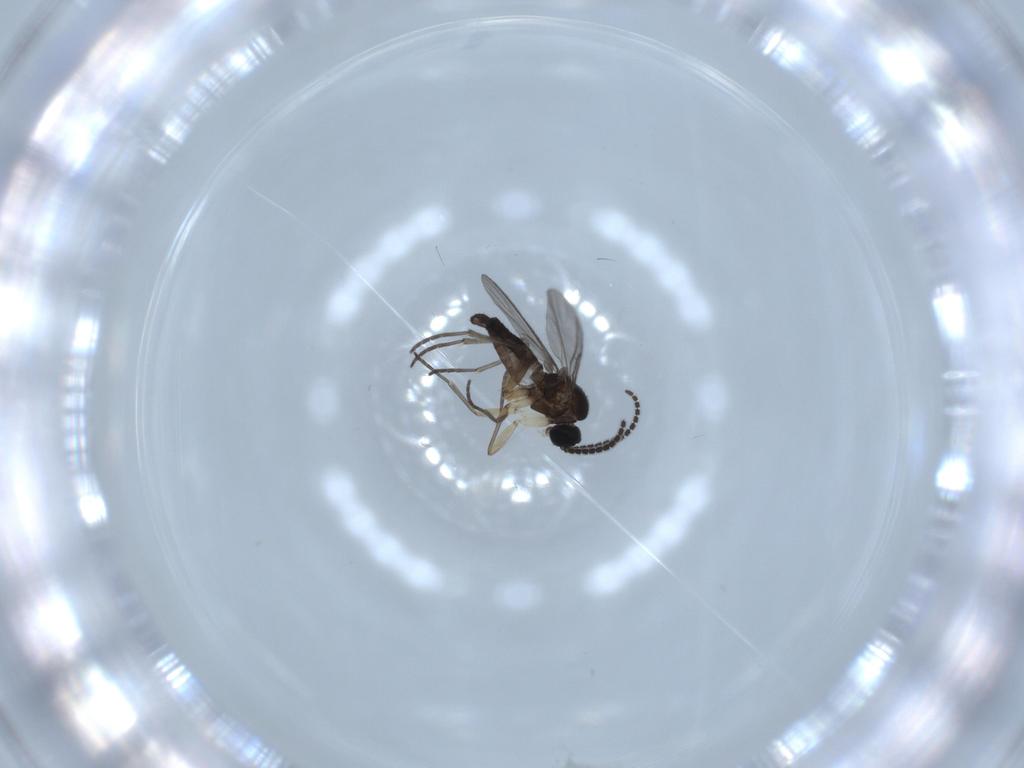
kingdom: Animalia
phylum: Arthropoda
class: Insecta
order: Diptera
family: Sciaridae
